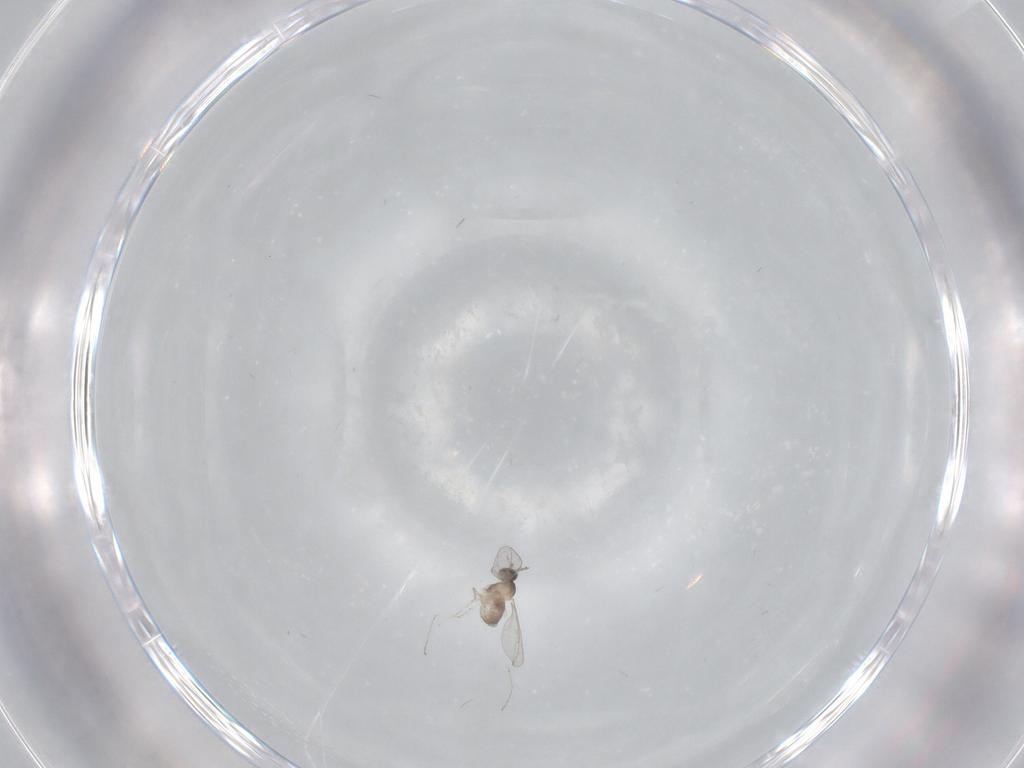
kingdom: Animalia
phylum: Arthropoda
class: Insecta
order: Diptera
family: Cecidomyiidae
